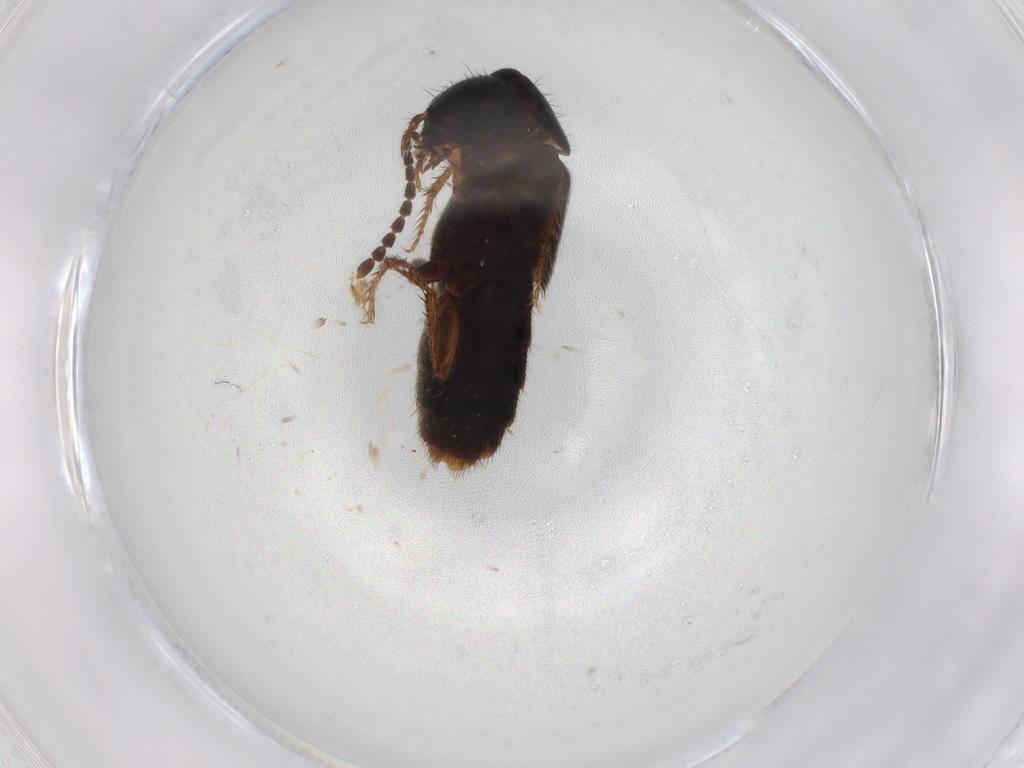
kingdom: Animalia
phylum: Arthropoda
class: Insecta
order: Coleoptera
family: Staphylinidae
